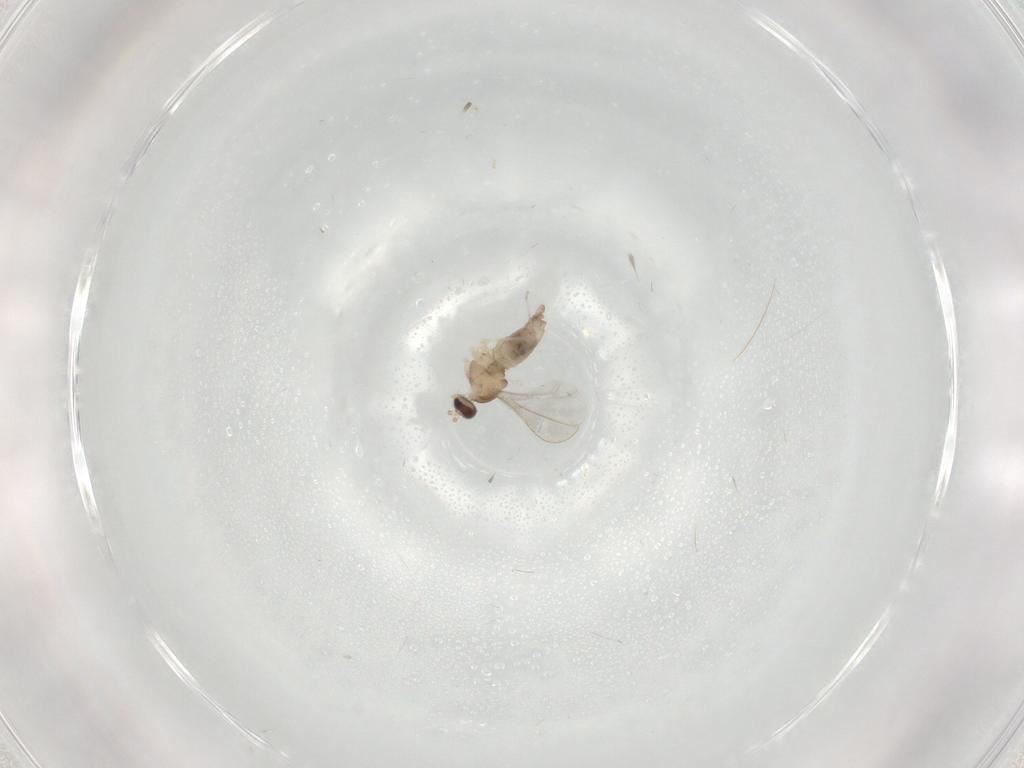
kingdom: Animalia
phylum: Arthropoda
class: Insecta
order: Diptera
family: Cecidomyiidae
